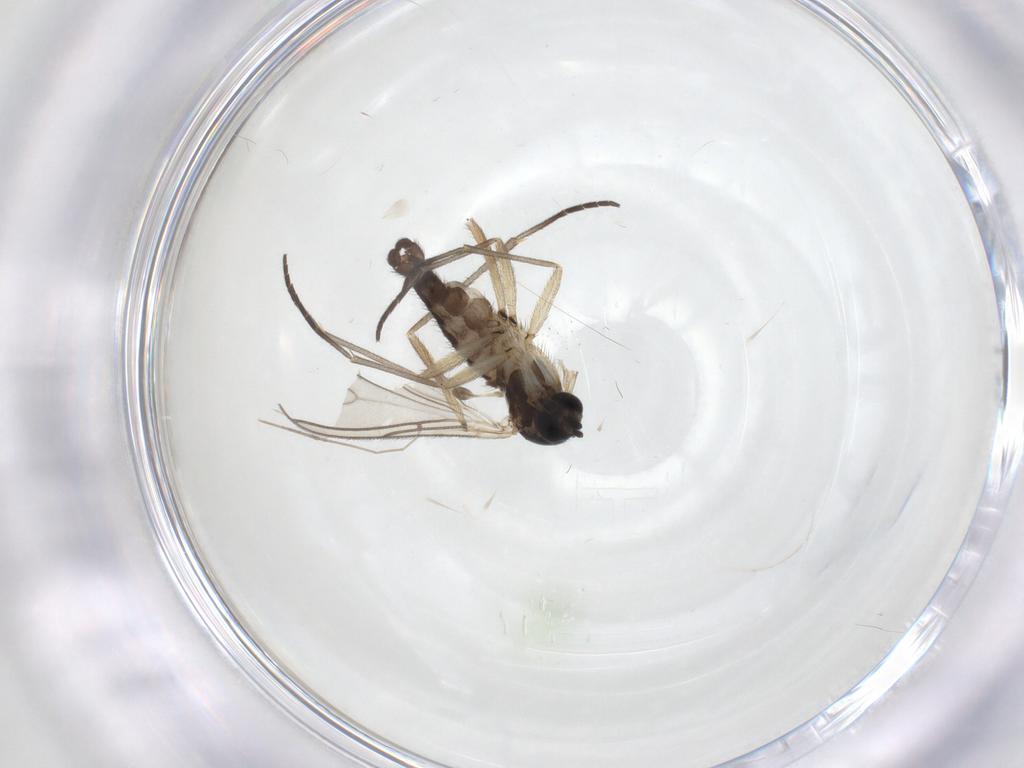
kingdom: Animalia
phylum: Arthropoda
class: Insecta
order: Diptera
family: Sciaridae
